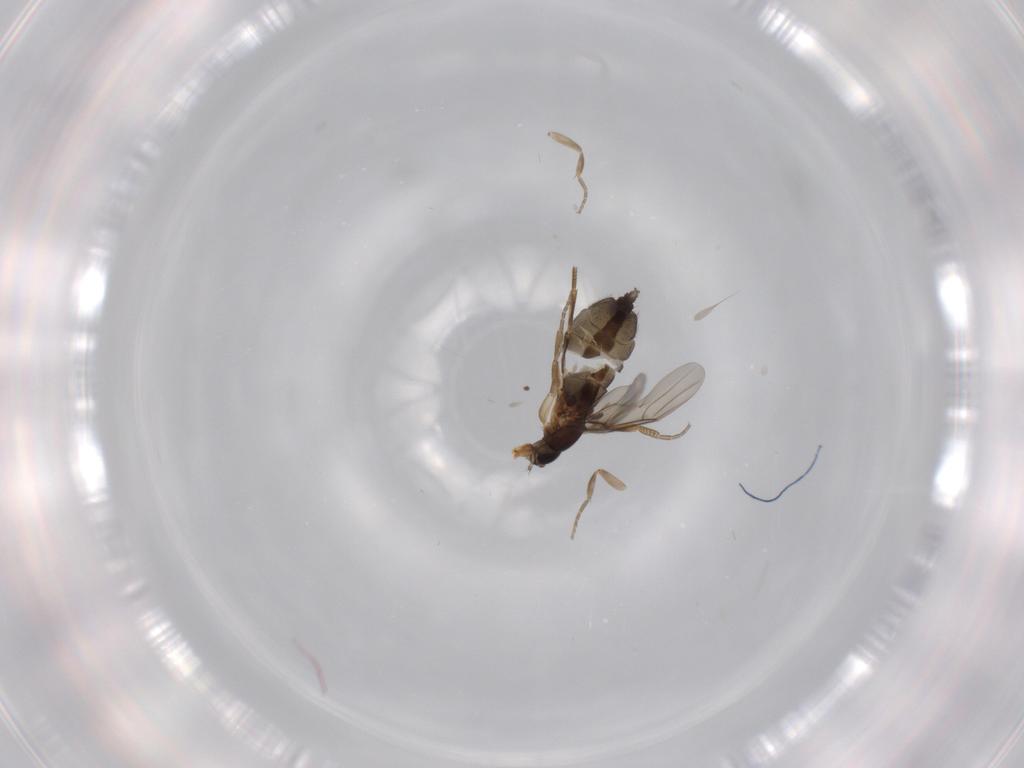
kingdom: Animalia
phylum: Arthropoda
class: Insecta
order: Diptera
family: Phoridae
